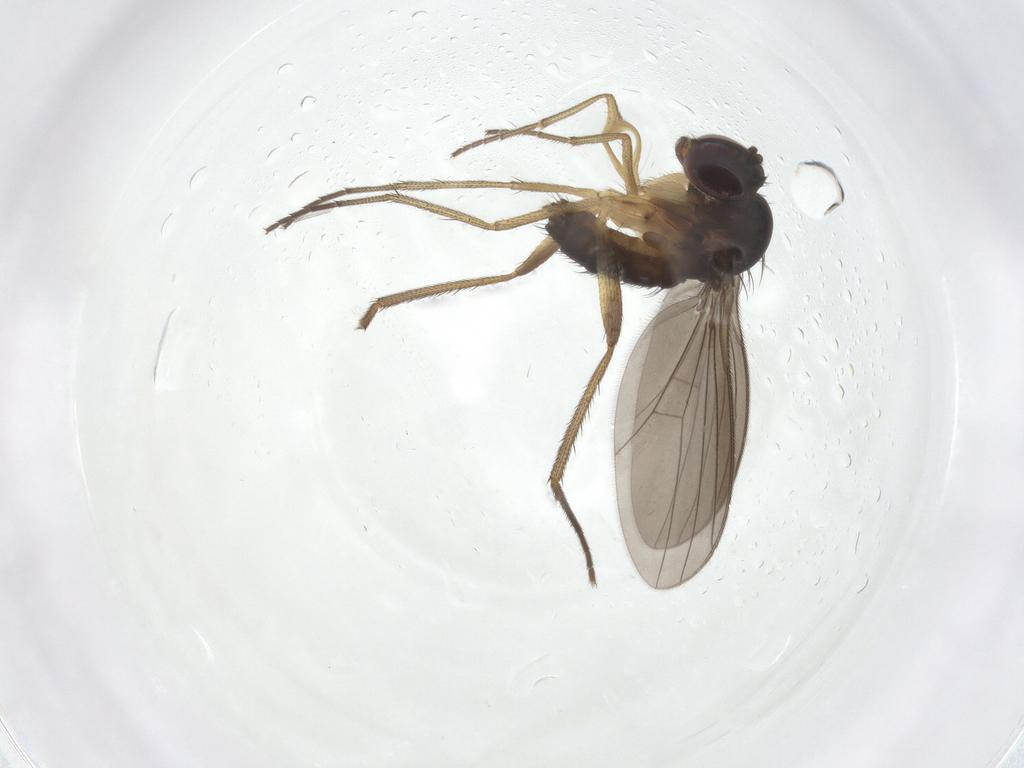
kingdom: Animalia
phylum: Arthropoda
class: Insecta
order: Diptera
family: Dolichopodidae
